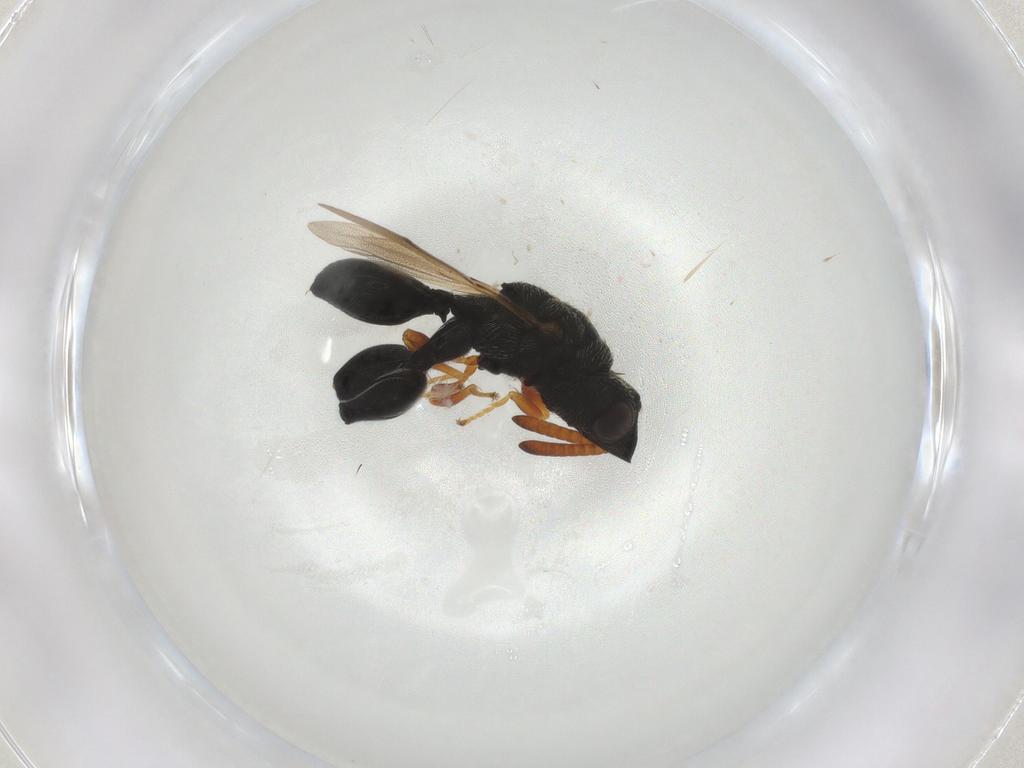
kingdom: Animalia
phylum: Arthropoda
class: Insecta
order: Hymenoptera
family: Chalcididae
